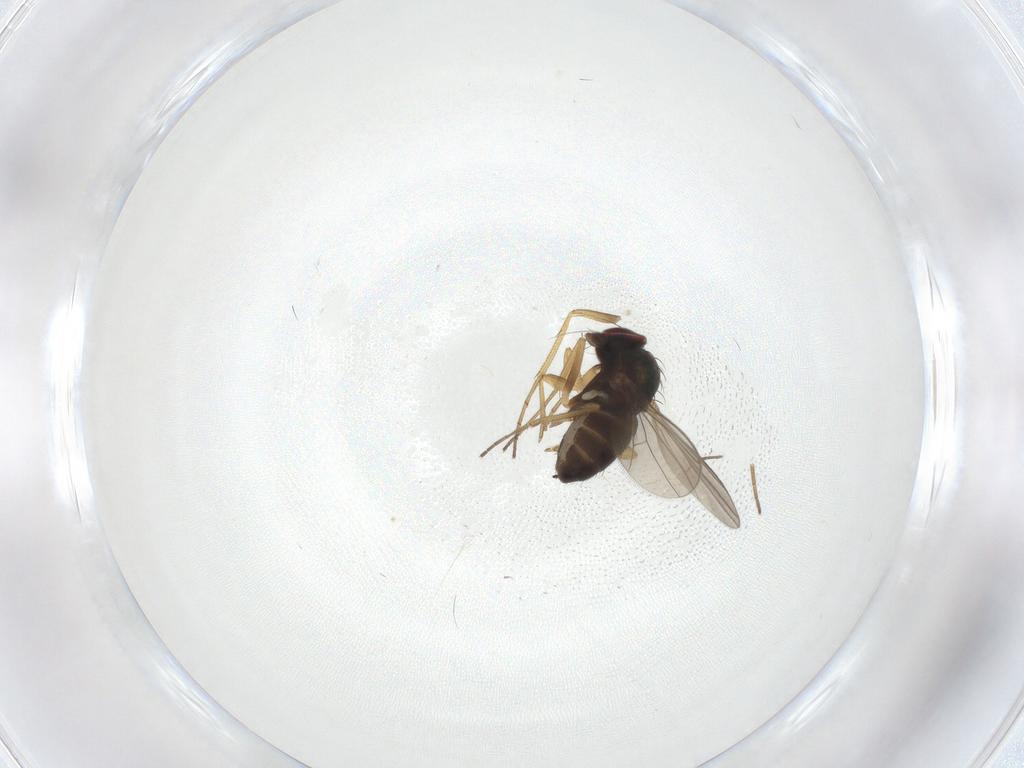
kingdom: Animalia
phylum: Arthropoda
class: Insecta
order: Diptera
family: Dolichopodidae
